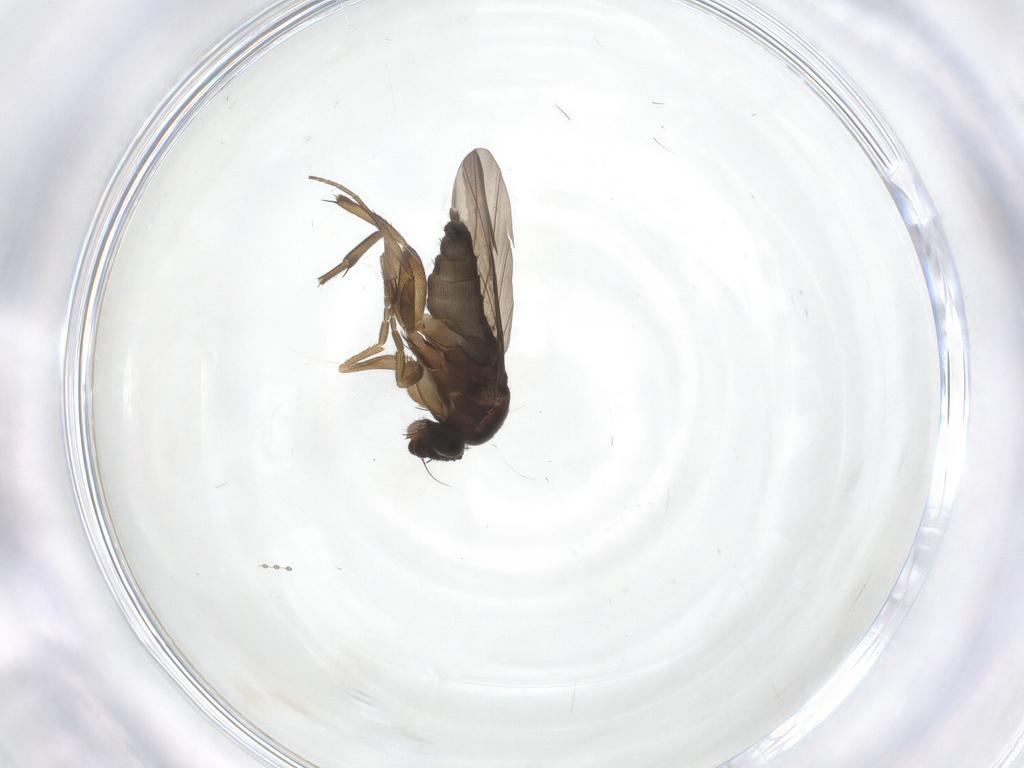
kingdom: Animalia
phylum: Arthropoda
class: Insecta
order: Diptera
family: Phoridae
